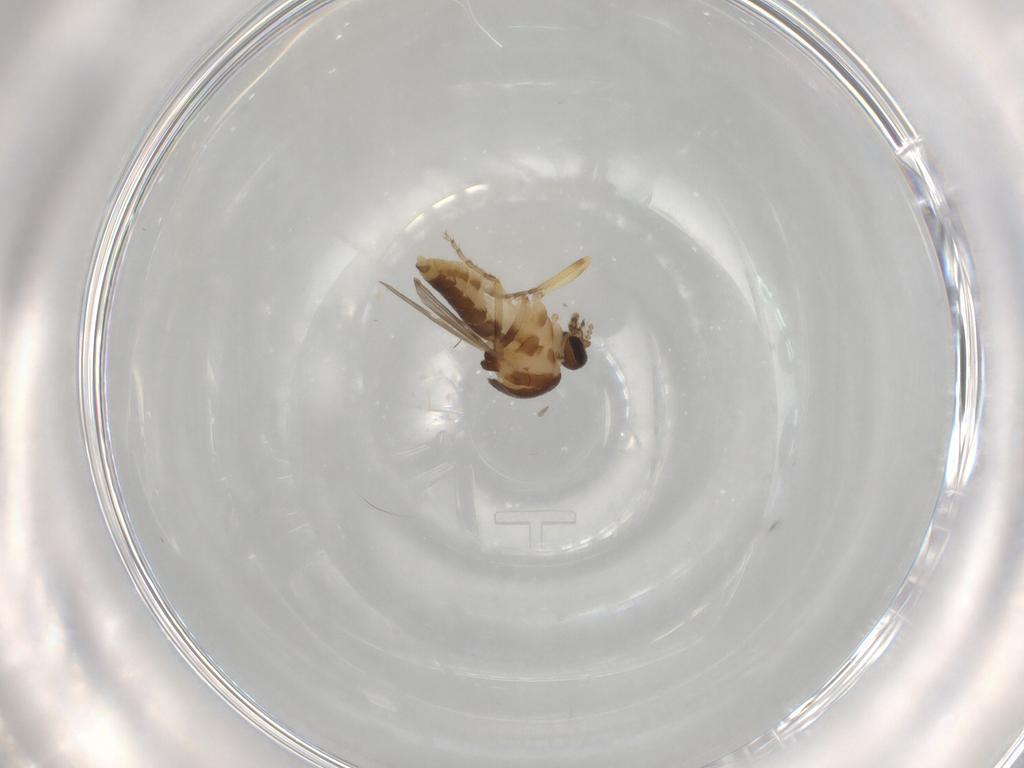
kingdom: Animalia
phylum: Arthropoda
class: Insecta
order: Diptera
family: Ceratopogonidae
